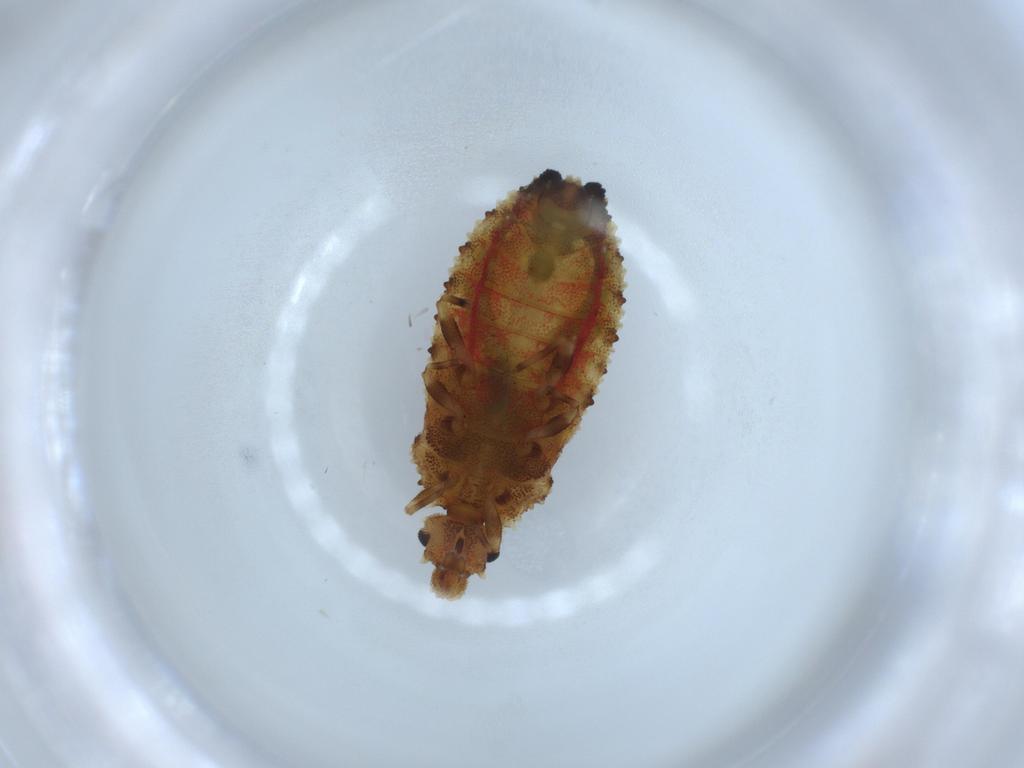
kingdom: Animalia
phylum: Arthropoda
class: Insecta
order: Hemiptera
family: Aradidae
